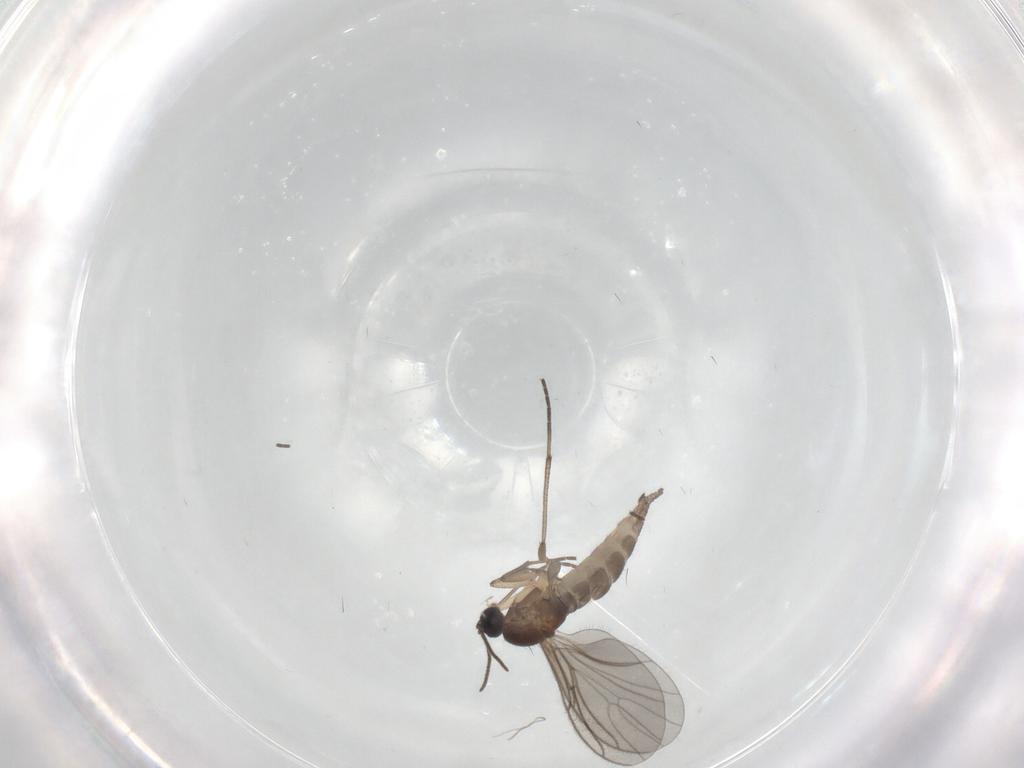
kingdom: Animalia
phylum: Arthropoda
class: Insecta
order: Diptera
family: Sciaridae
